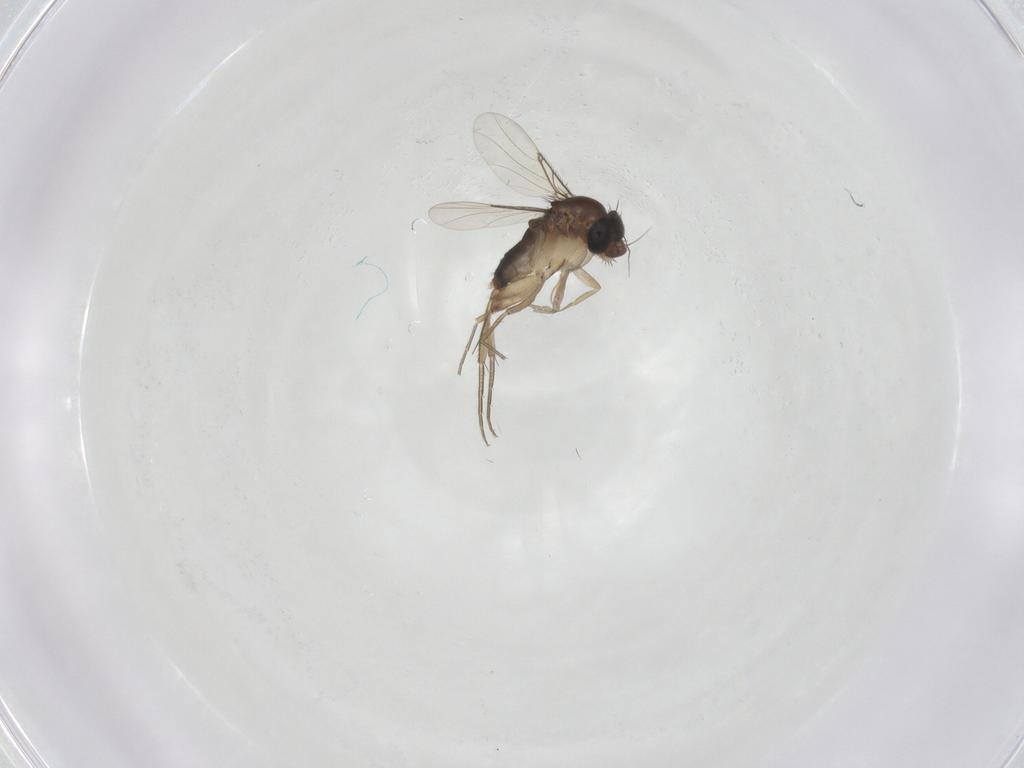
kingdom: Animalia
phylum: Arthropoda
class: Insecta
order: Diptera
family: Phoridae
